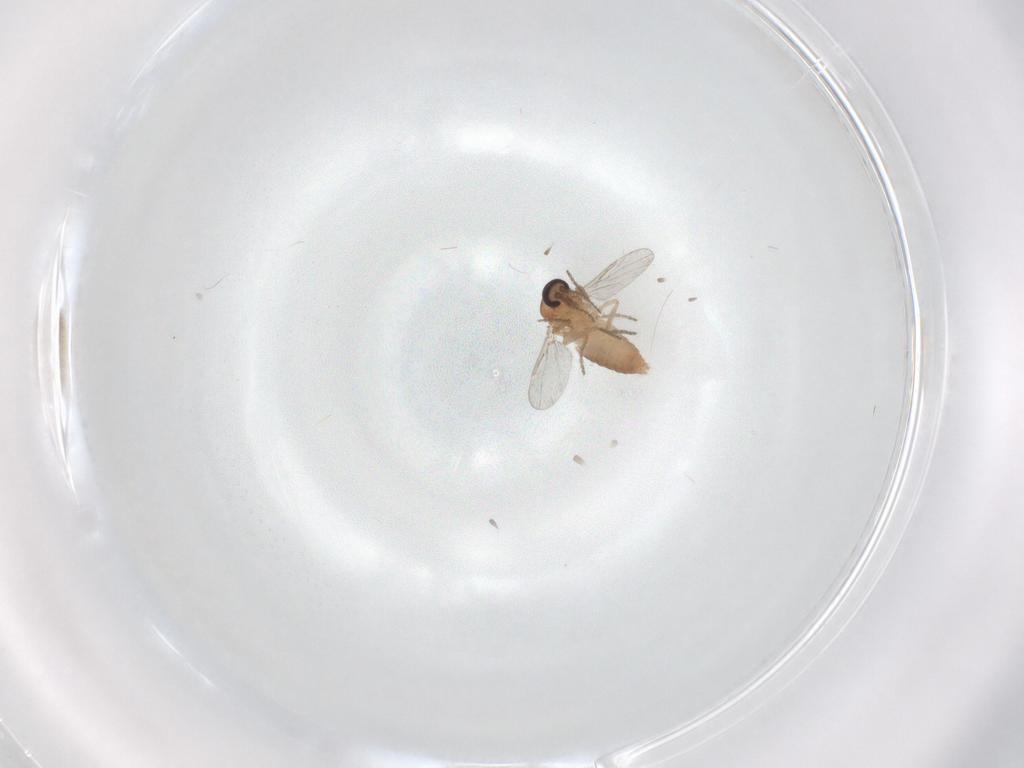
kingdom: Animalia
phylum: Arthropoda
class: Insecta
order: Diptera
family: Ceratopogonidae
